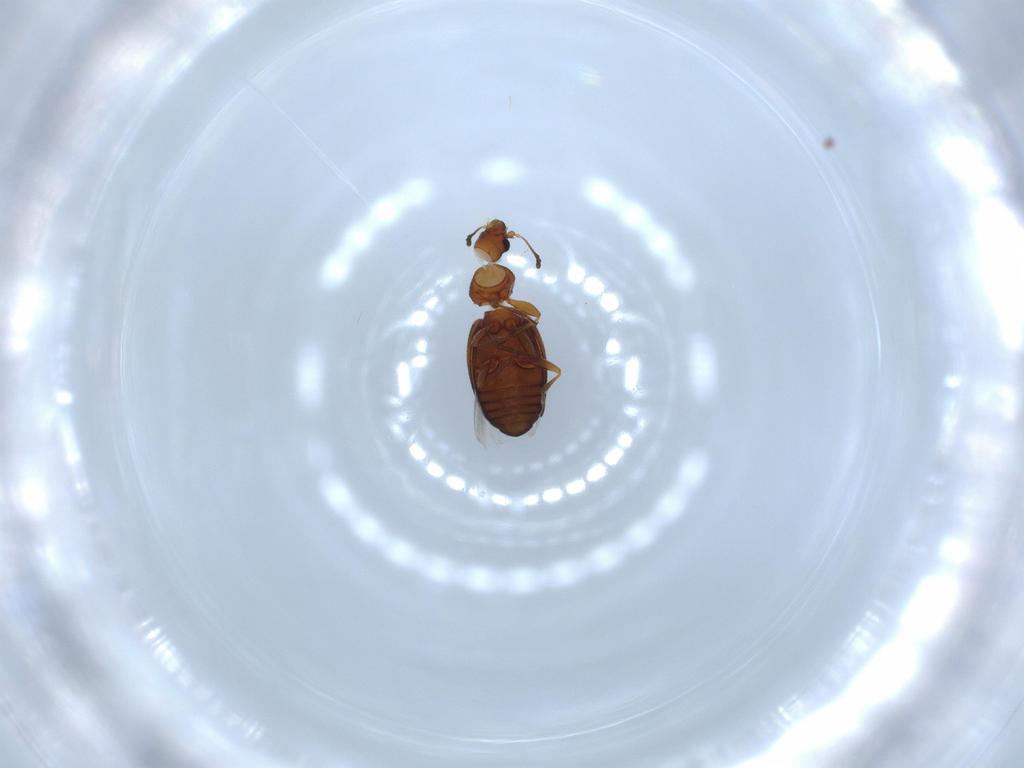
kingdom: Animalia
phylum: Arthropoda
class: Insecta
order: Coleoptera
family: Latridiidae
